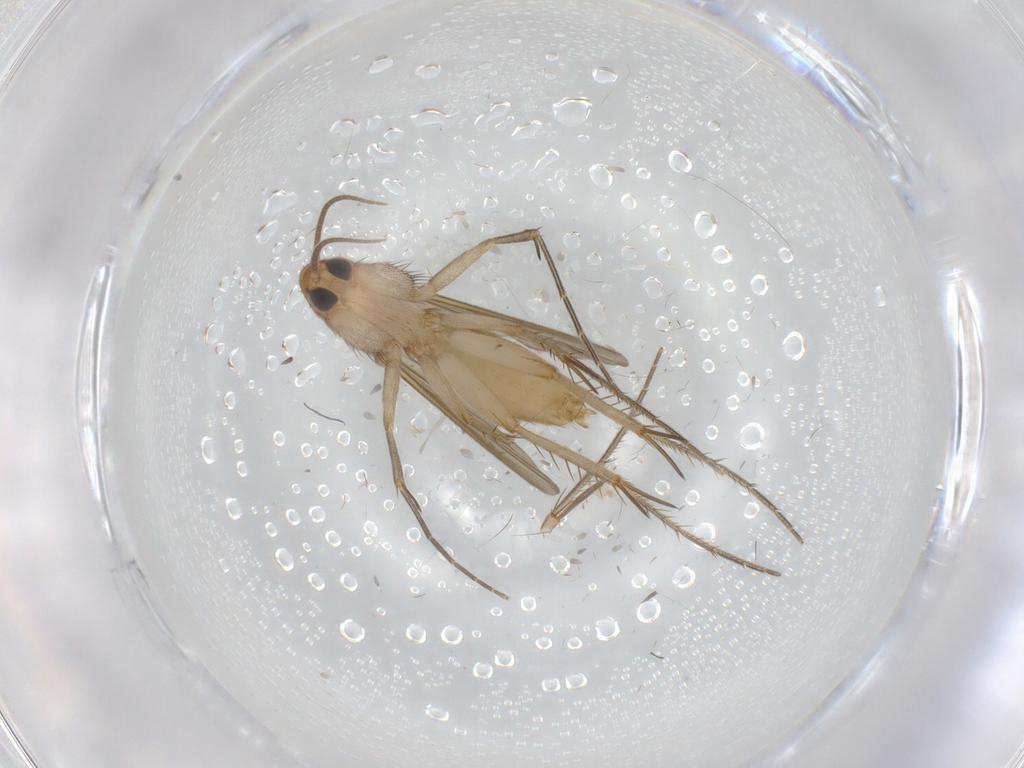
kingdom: Animalia
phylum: Arthropoda
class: Insecta
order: Diptera
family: Mycetophilidae
